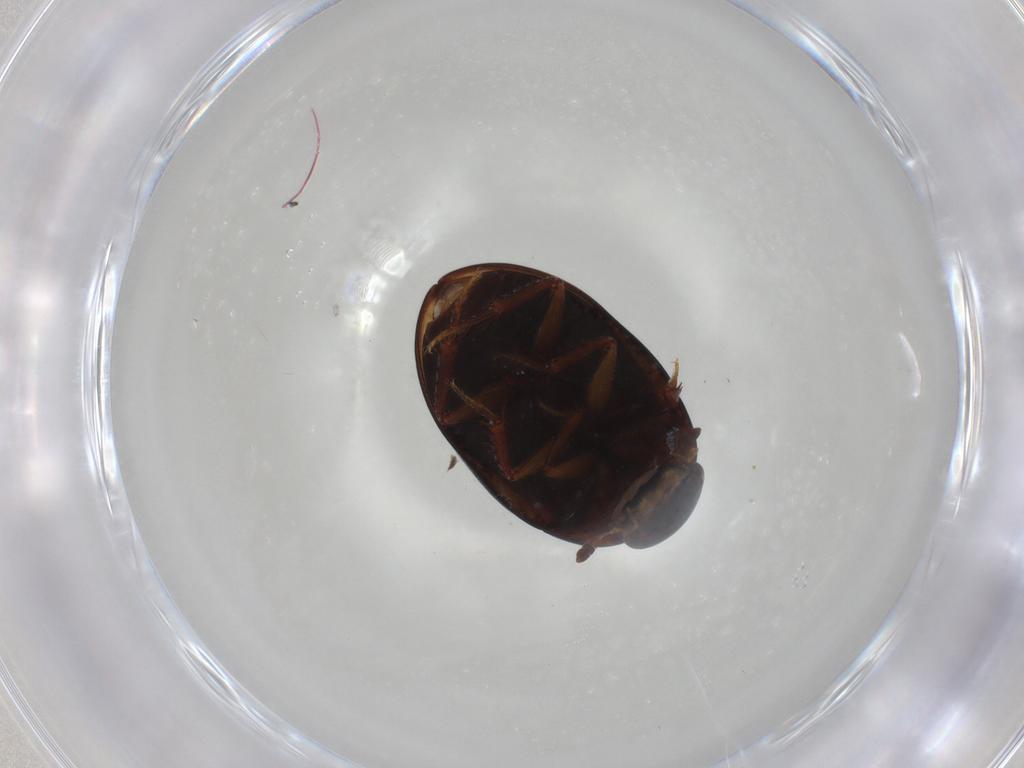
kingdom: Animalia
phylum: Arthropoda
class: Insecta
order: Coleoptera
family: Hydrophilidae
